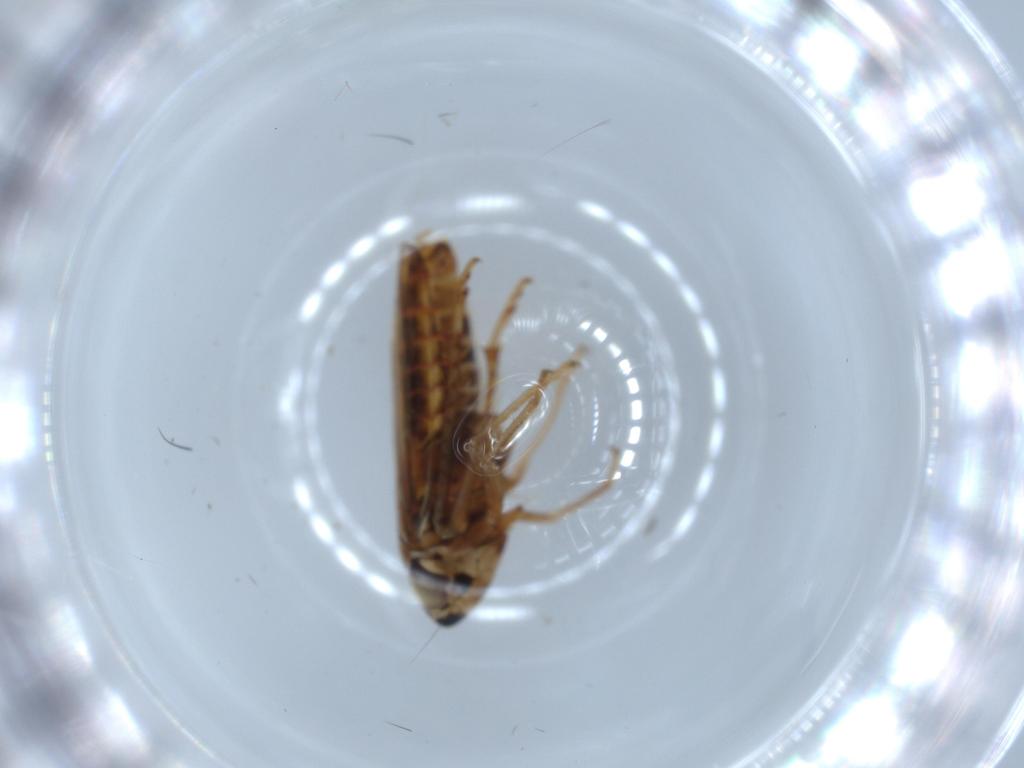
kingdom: Animalia
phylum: Arthropoda
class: Insecta
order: Hemiptera
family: Cicadellidae
